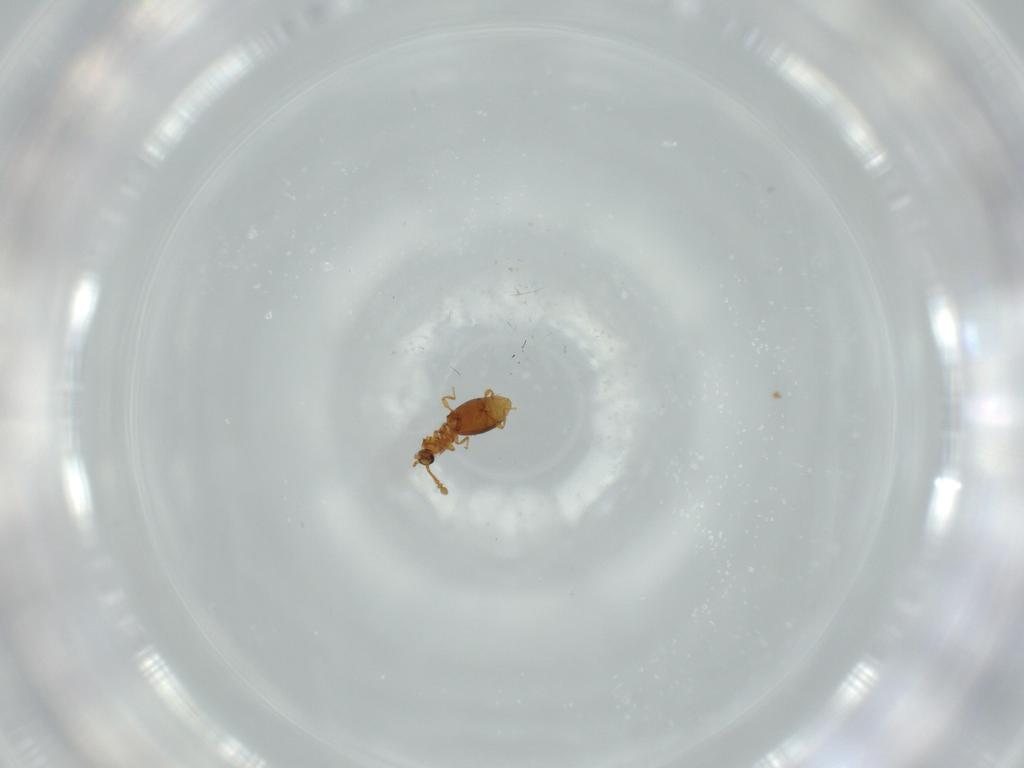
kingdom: Animalia
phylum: Arthropoda
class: Insecta
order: Coleoptera
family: Staphylinidae
